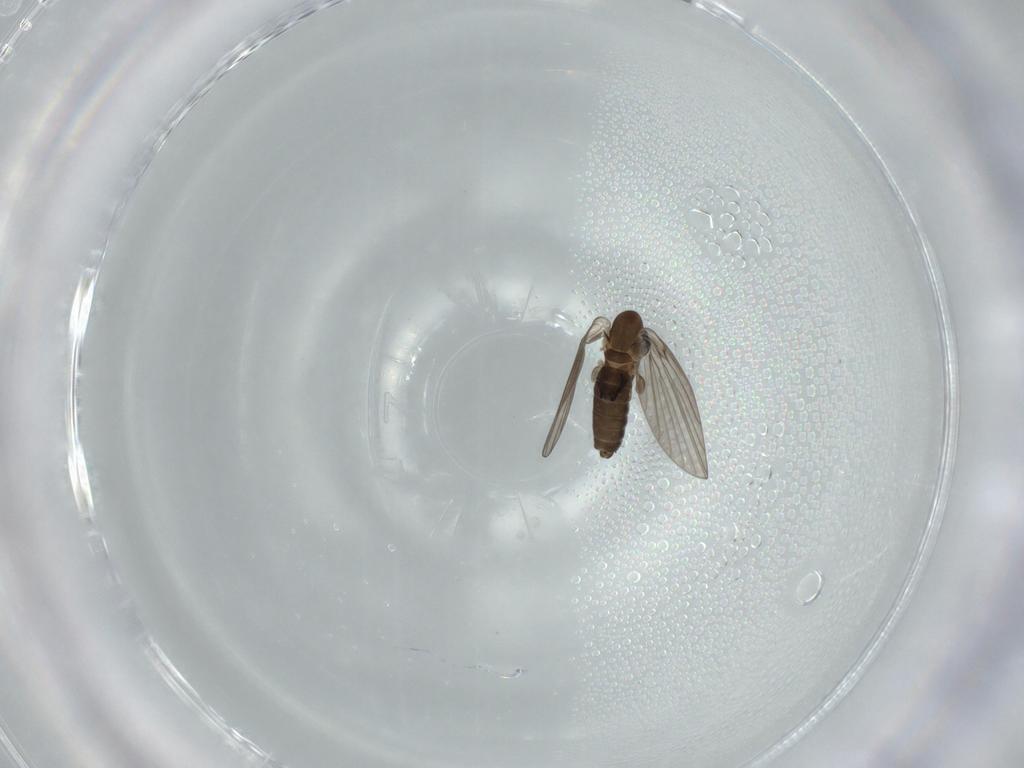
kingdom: Animalia
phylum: Arthropoda
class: Insecta
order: Diptera
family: Psychodidae
